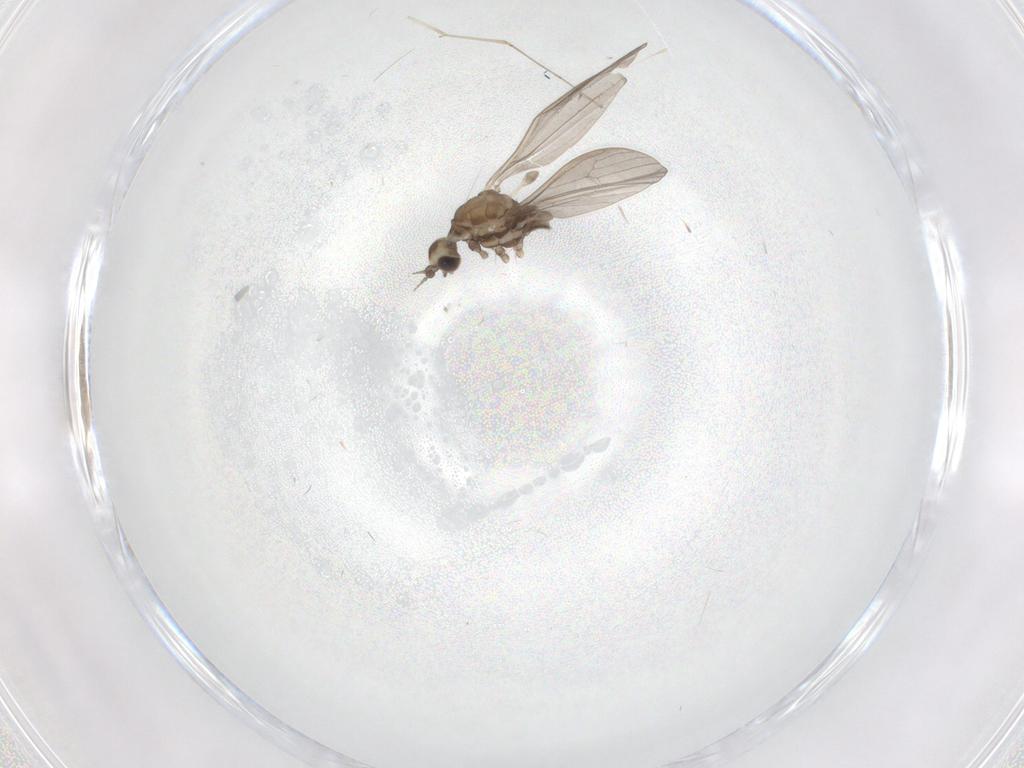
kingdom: Animalia
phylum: Arthropoda
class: Insecta
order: Diptera
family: Limoniidae
